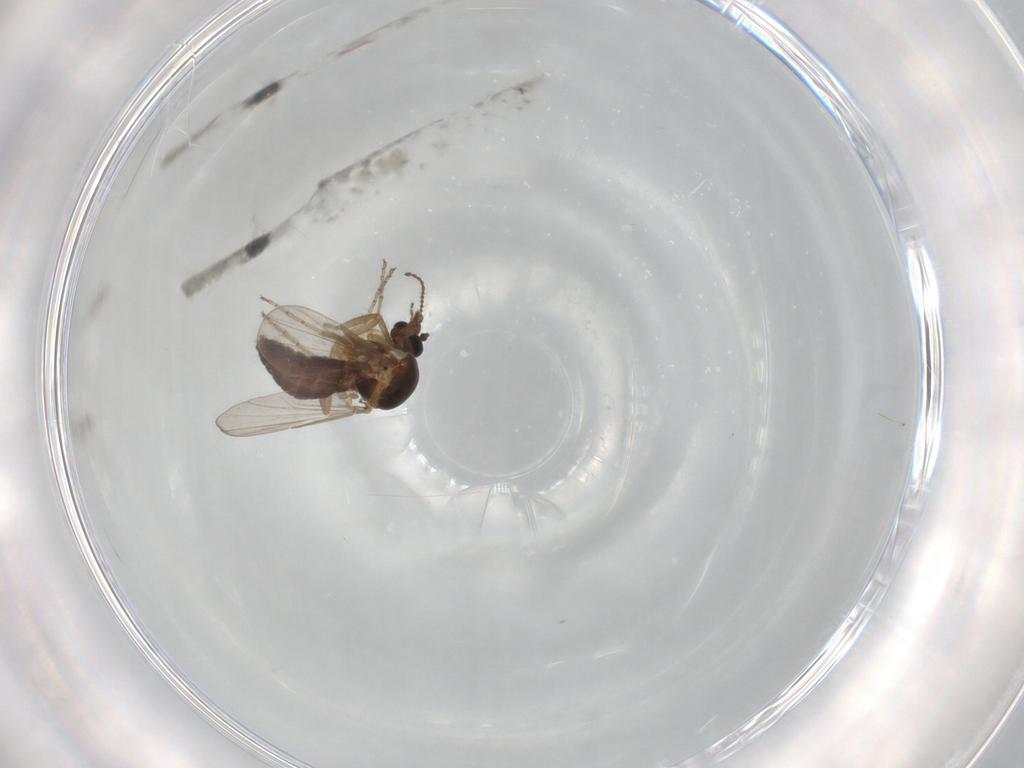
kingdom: Animalia
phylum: Arthropoda
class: Insecta
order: Diptera
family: Ceratopogonidae
